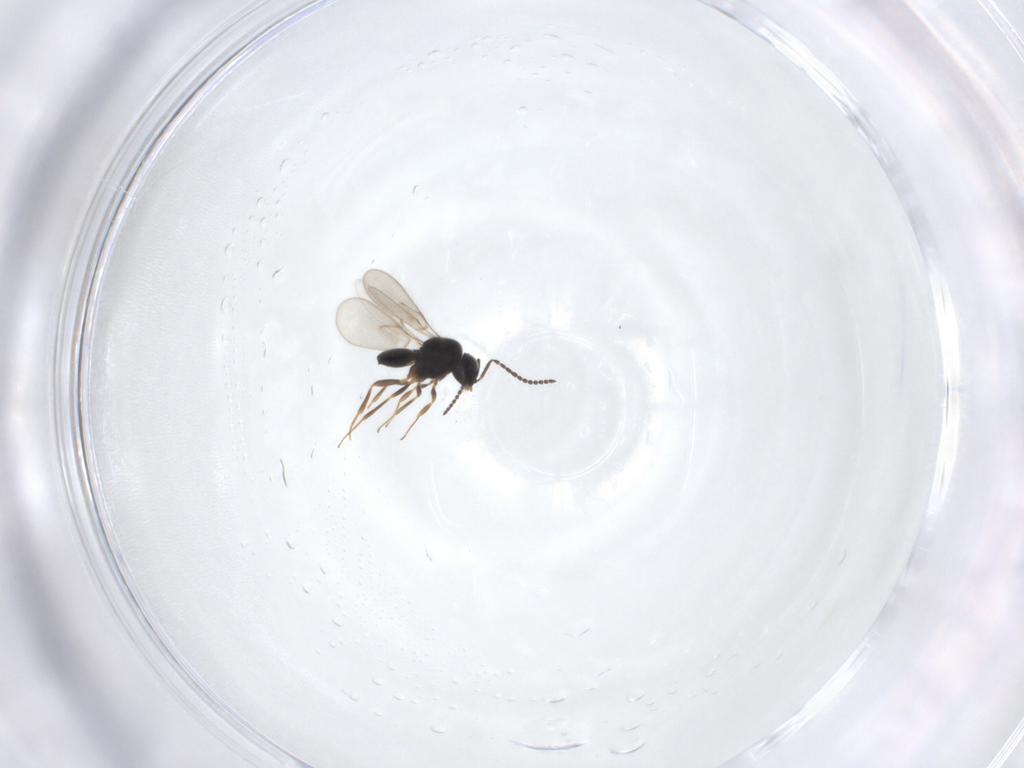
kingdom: Animalia
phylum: Arthropoda
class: Insecta
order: Hymenoptera
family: Scelionidae
